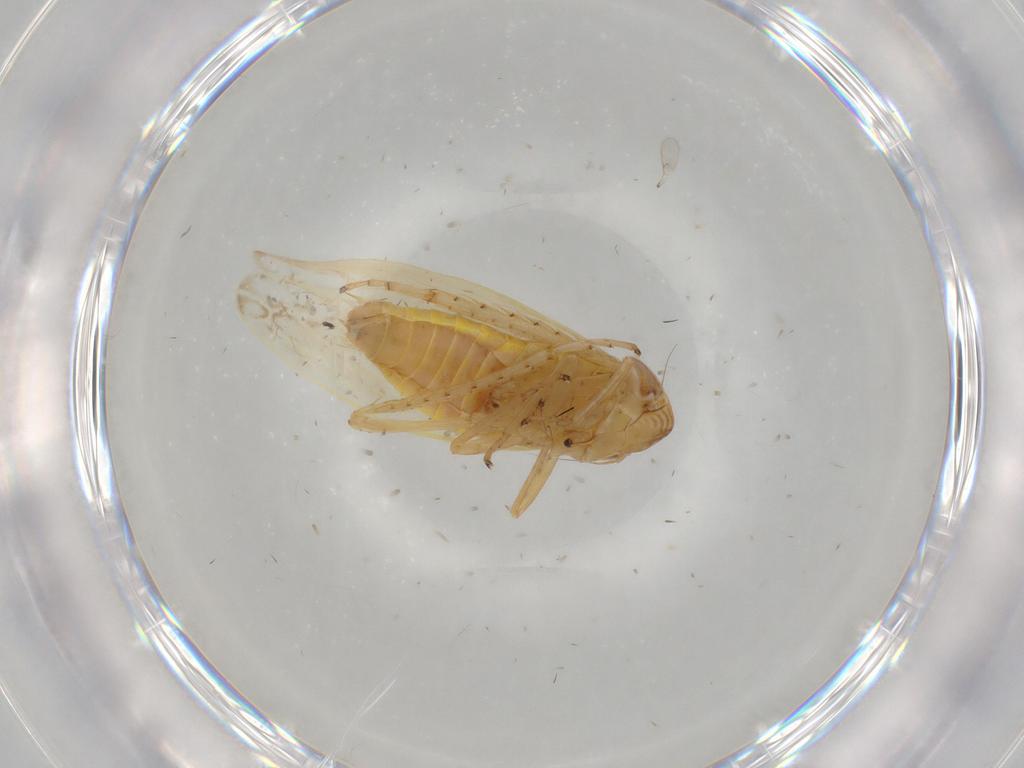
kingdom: Animalia
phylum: Arthropoda
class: Insecta
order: Hemiptera
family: Cicadellidae
